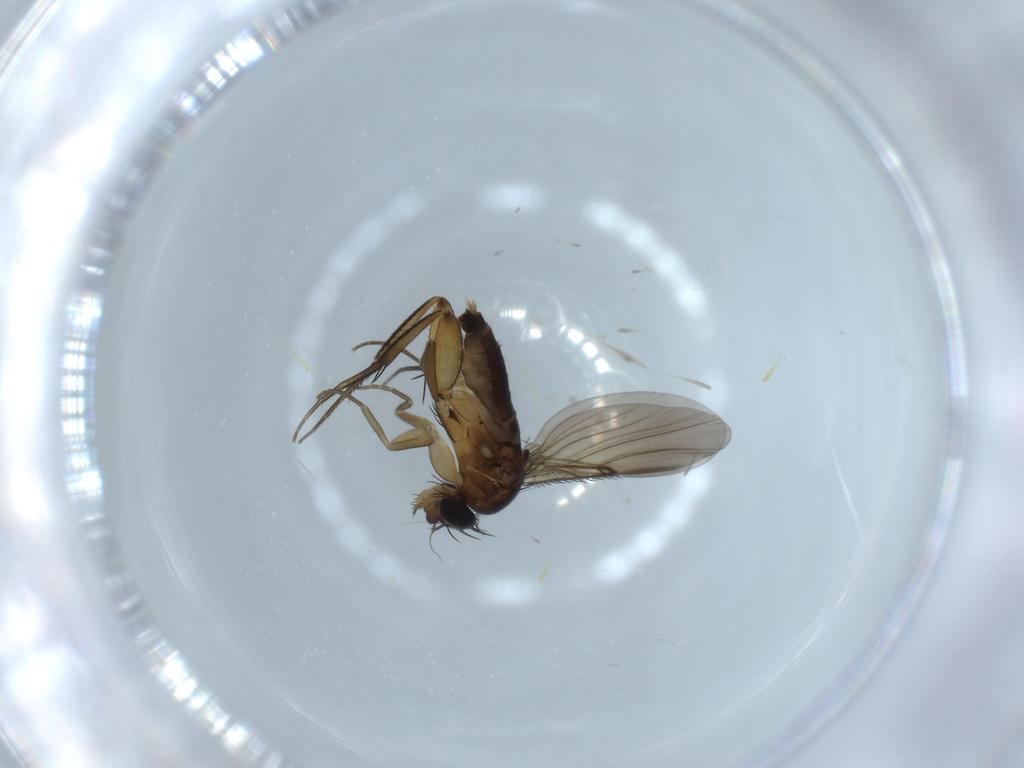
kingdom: Animalia
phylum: Arthropoda
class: Insecta
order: Diptera
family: Phoridae
